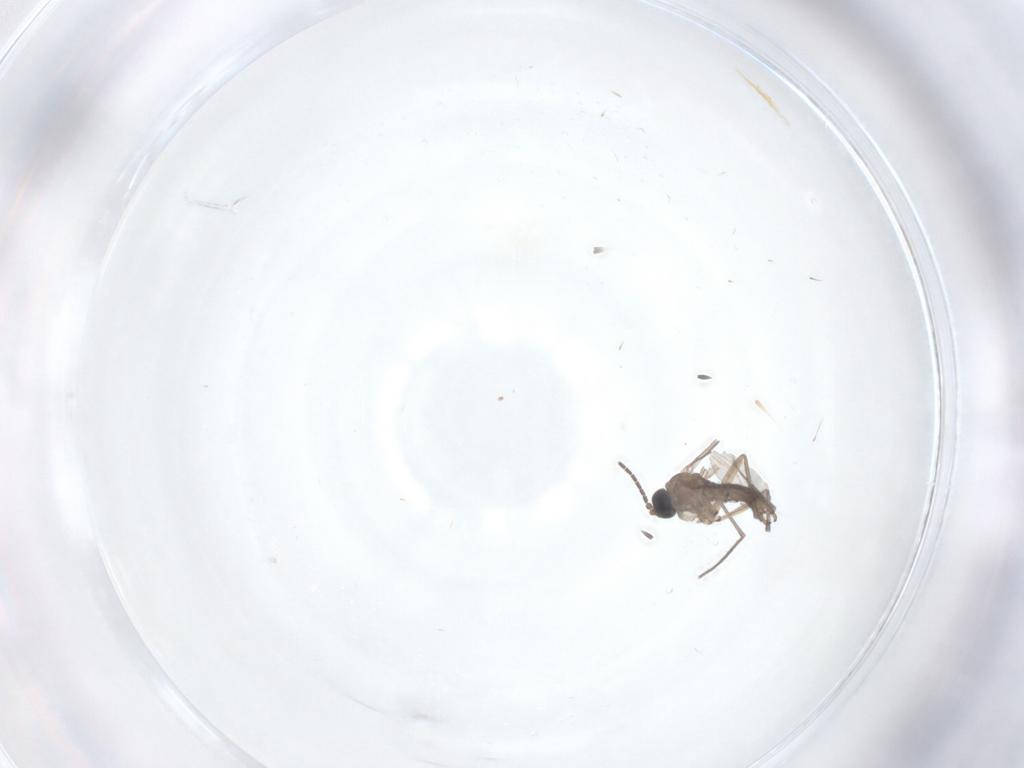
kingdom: Animalia
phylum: Arthropoda
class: Insecta
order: Diptera
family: Sciaridae
